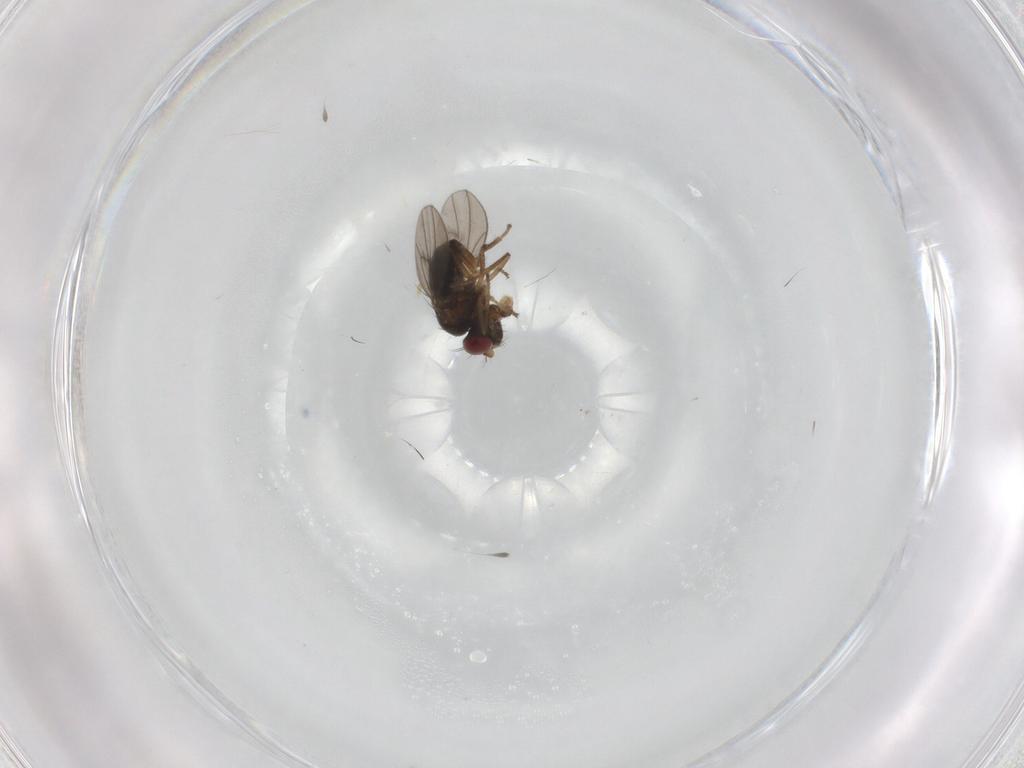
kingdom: Animalia
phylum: Arthropoda
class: Insecta
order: Diptera
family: Ephydridae
